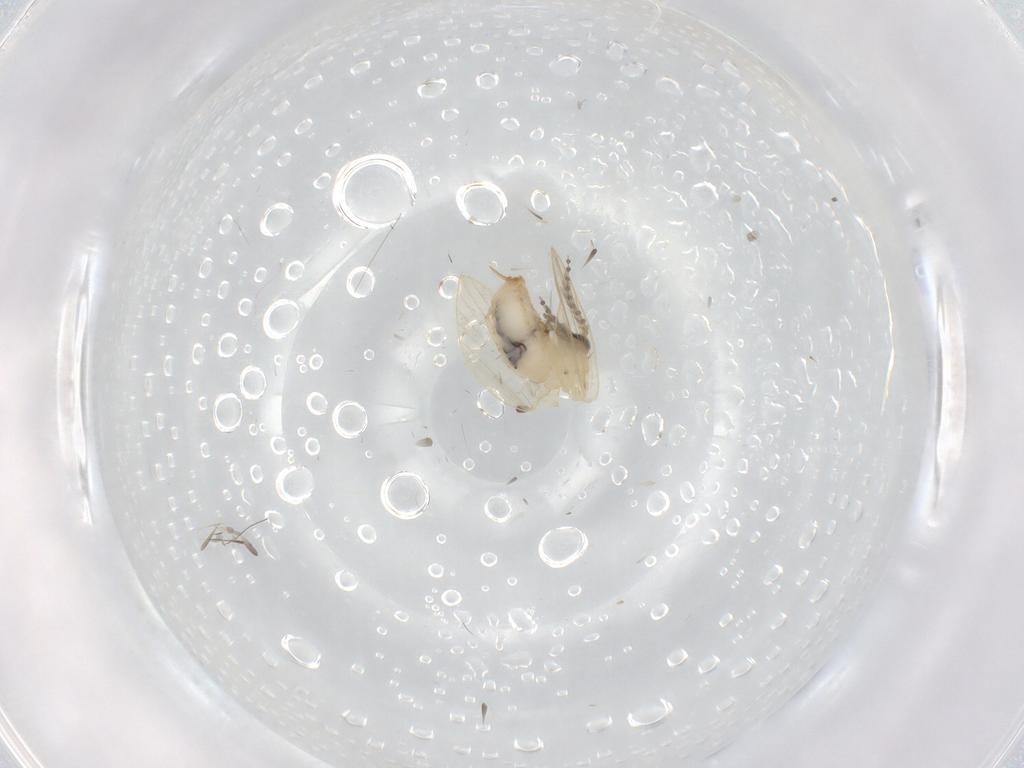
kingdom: Animalia
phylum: Arthropoda
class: Insecta
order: Diptera
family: Psychodidae
